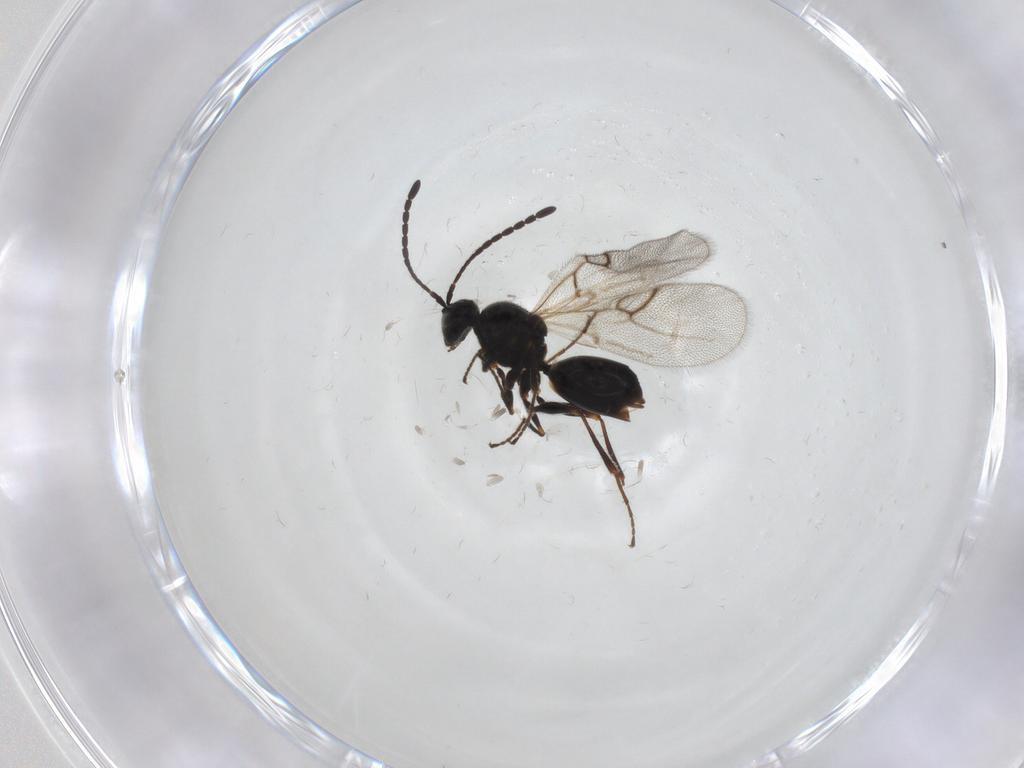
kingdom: Animalia
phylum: Arthropoda
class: Insecta
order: Hymenoptera
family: Figitidae
